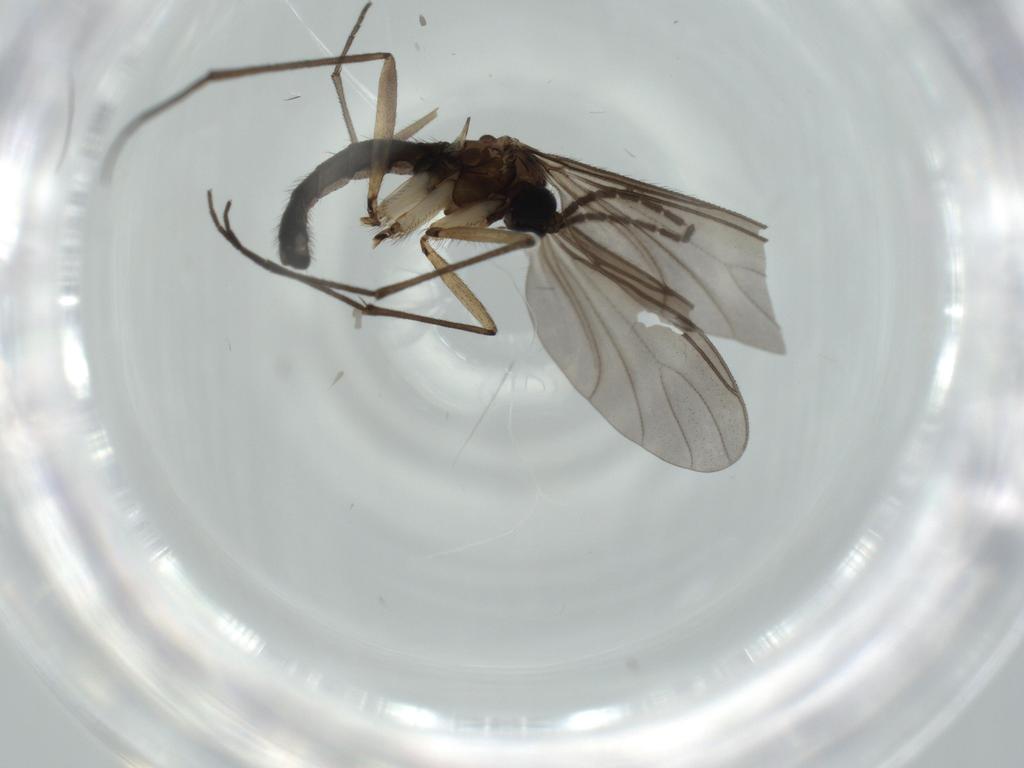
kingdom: Animalia
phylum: Arthropoda
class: Insecta
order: Diptera
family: Sciaridae
